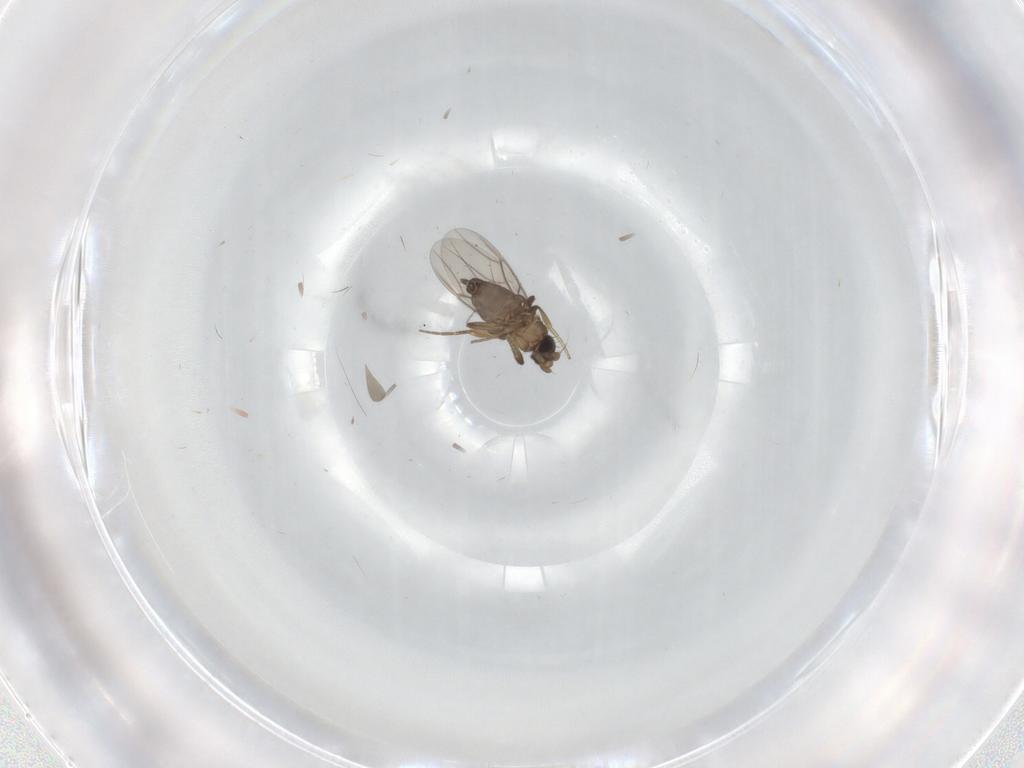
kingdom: Animalia
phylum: Arthropoda
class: Insecta
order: Diptera
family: Phoridae
